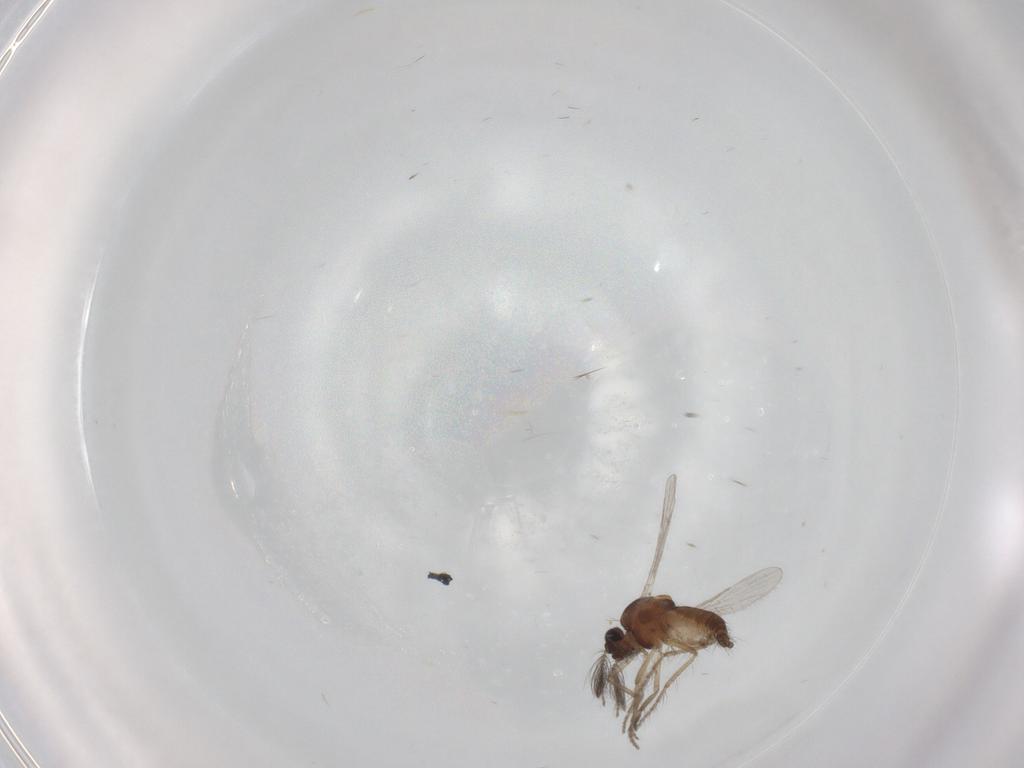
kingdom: Animalia
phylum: Arthropoda
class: Insecta
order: Diptera
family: Ceratopogonidae
